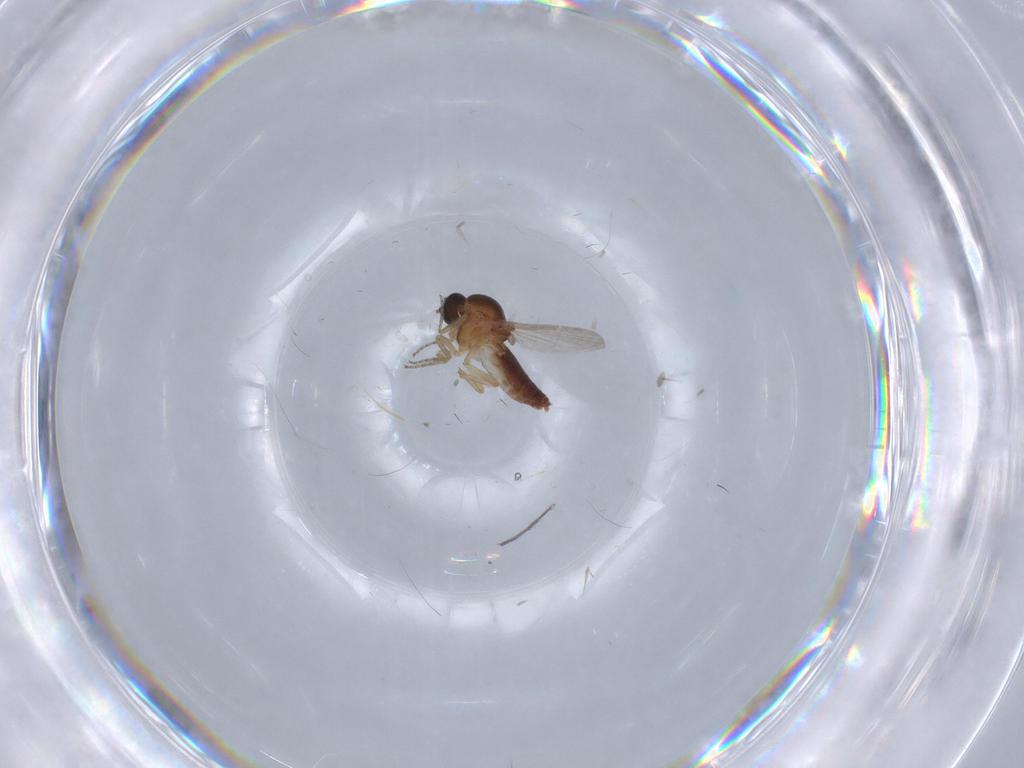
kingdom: Animalia
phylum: Arthropoda
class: Insecta
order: Diptera
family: Ceratopogonidae
